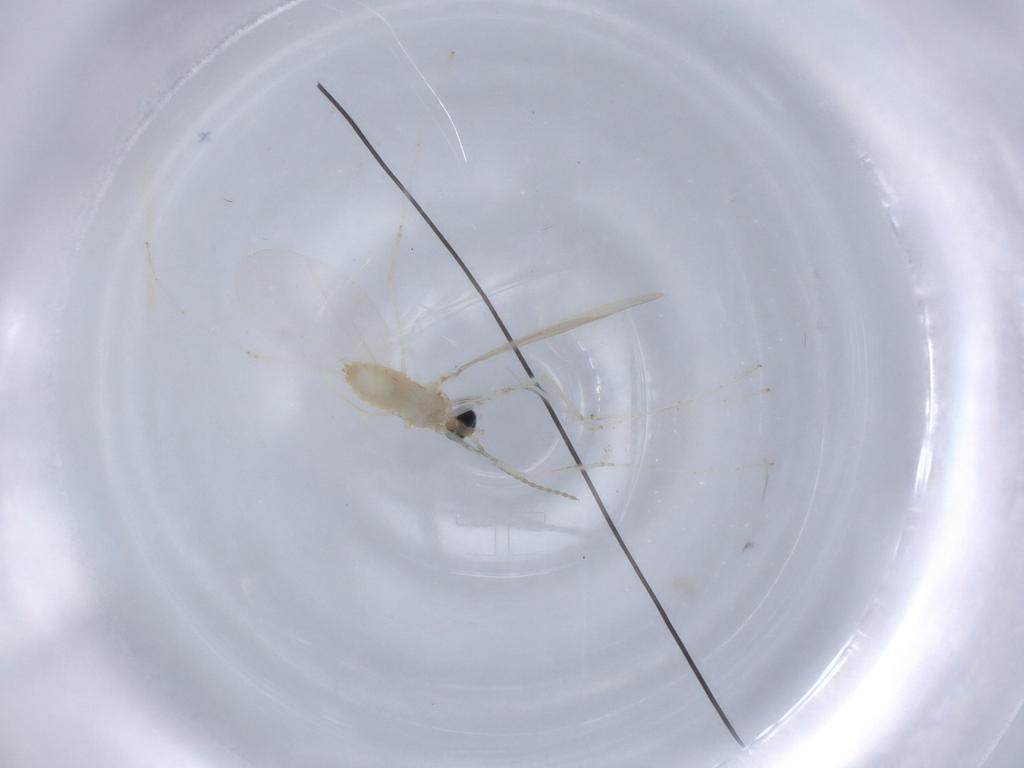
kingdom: Animalia
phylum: Arthropoda
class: Insecta
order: Diptera
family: Cecidomyiidae
